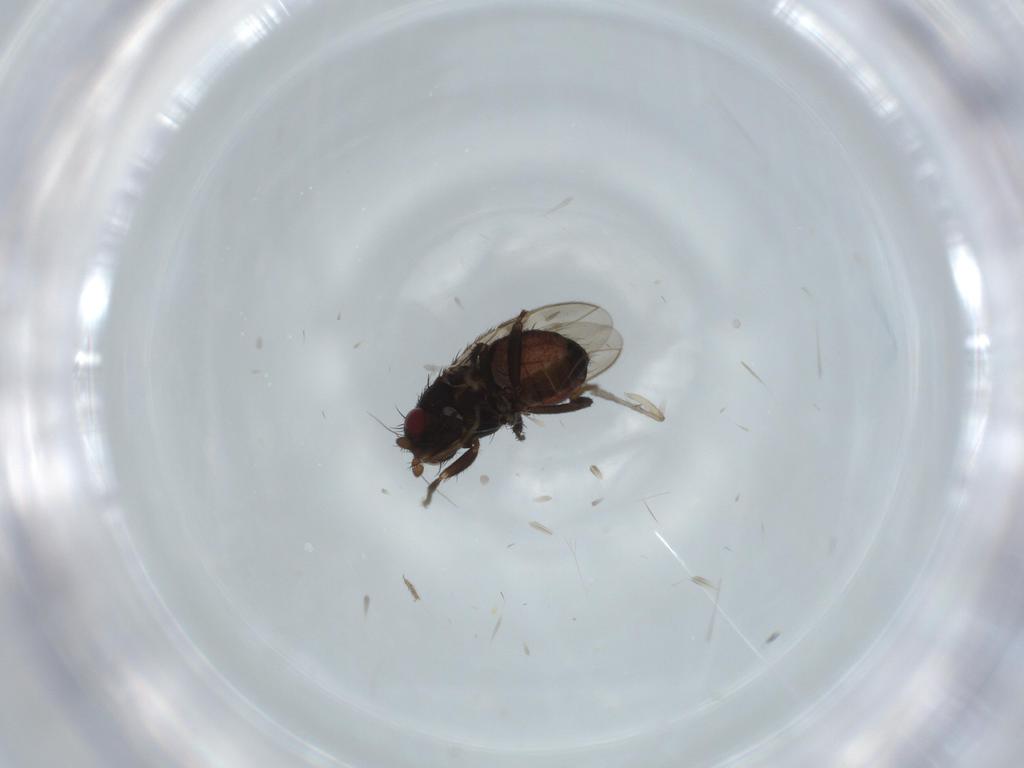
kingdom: Animalia
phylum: Arthropoda
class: Insecta
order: Diptera
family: Psychodidae
